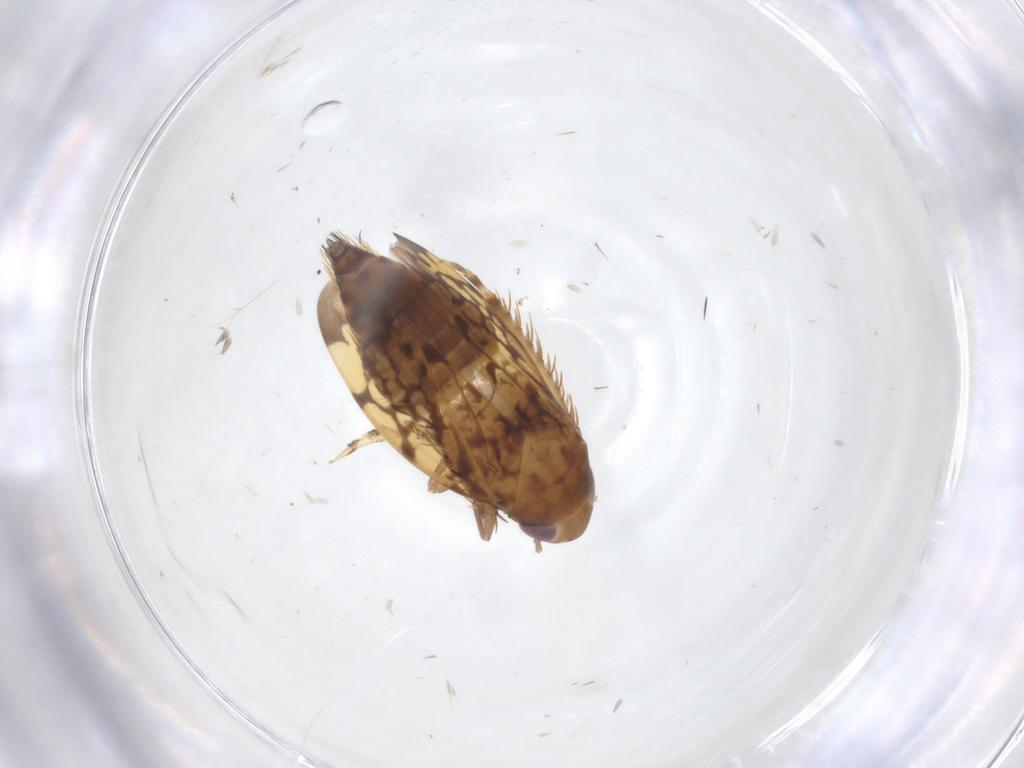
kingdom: Animalia
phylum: Arthropoda
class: Insecta
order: Hemiptera
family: Cicadellidae
